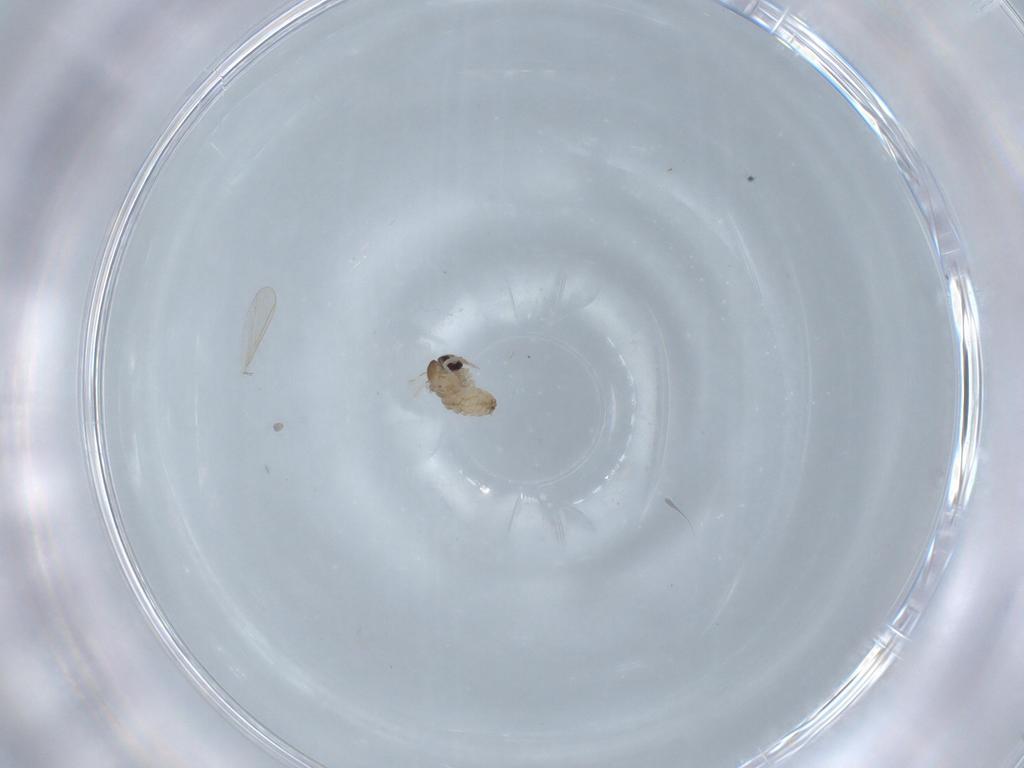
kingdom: Animalia
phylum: Arthropoda
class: Insecta
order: Diptera
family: Psychodidae
